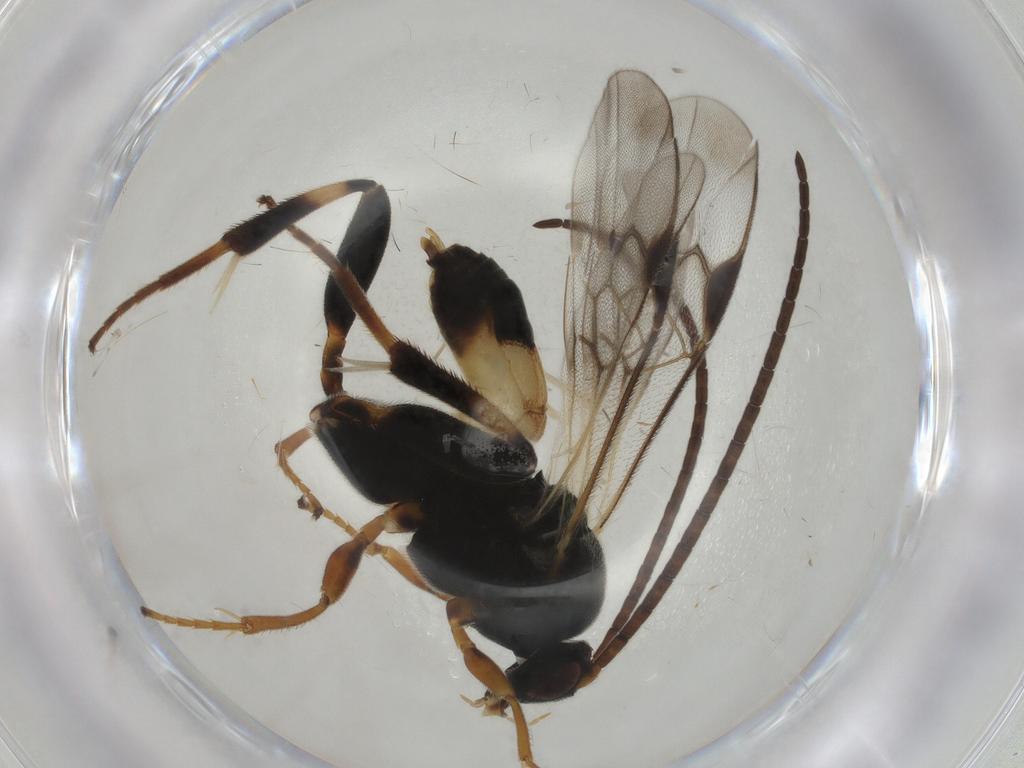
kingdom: Animalia
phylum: Arthropoda
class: Insecta
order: Hymenoptera
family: Braconidae
